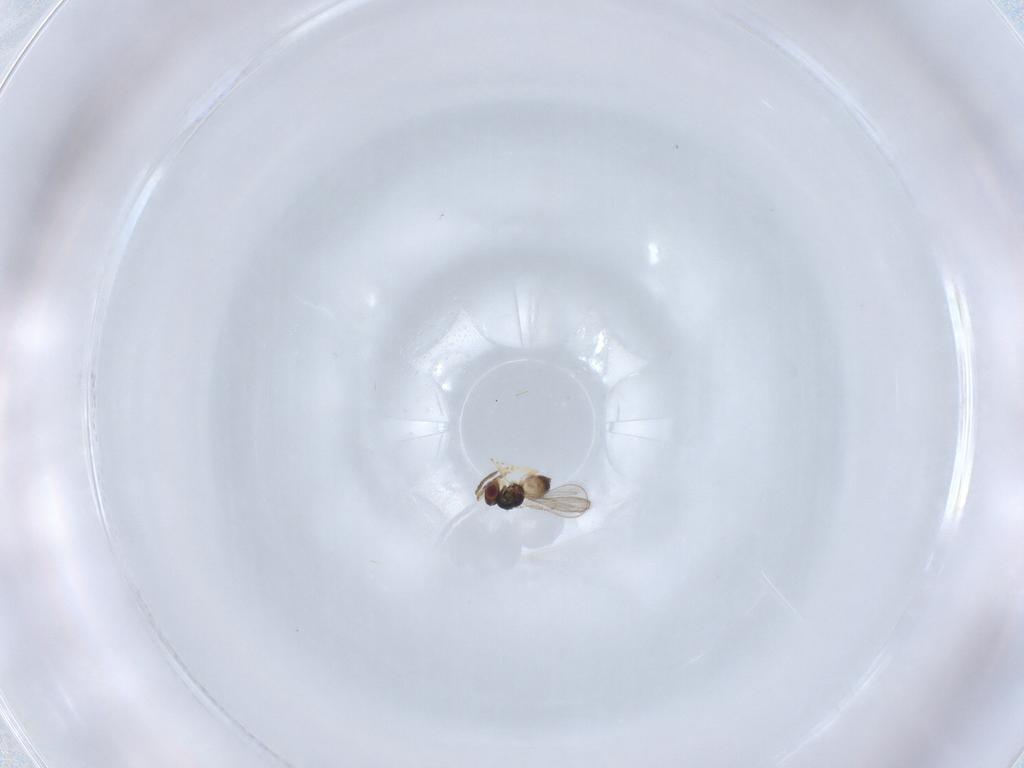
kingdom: Animalia
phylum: Arthropoda
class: Insecta
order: Hymenoptera
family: Eulophidae
